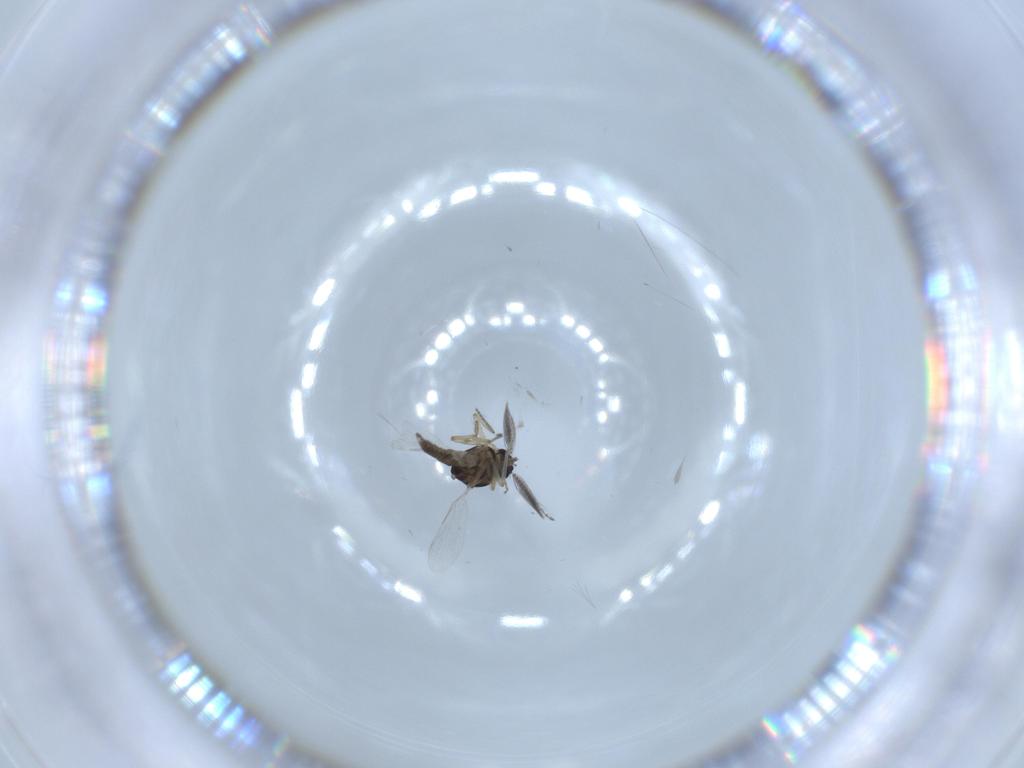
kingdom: Animalia
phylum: Arthropoda
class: Insecta
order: Diptera
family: Ceratopogonidae
